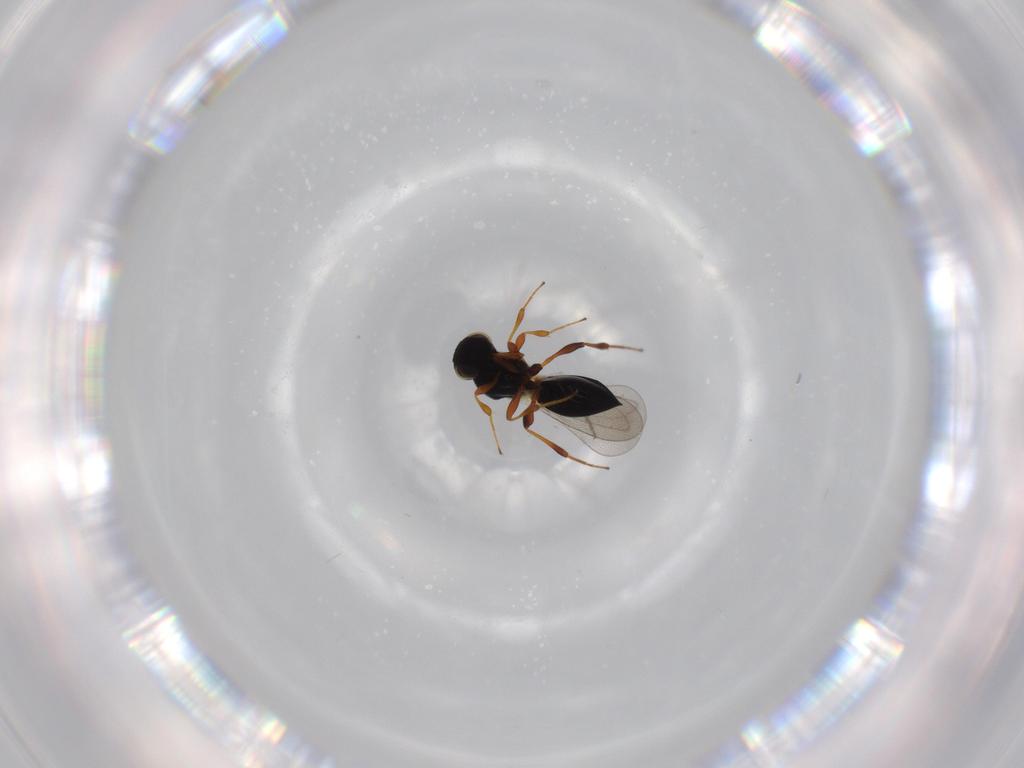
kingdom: Animalia
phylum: Arthropoda
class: Insecta
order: Hymenoptera
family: Platygastridae
